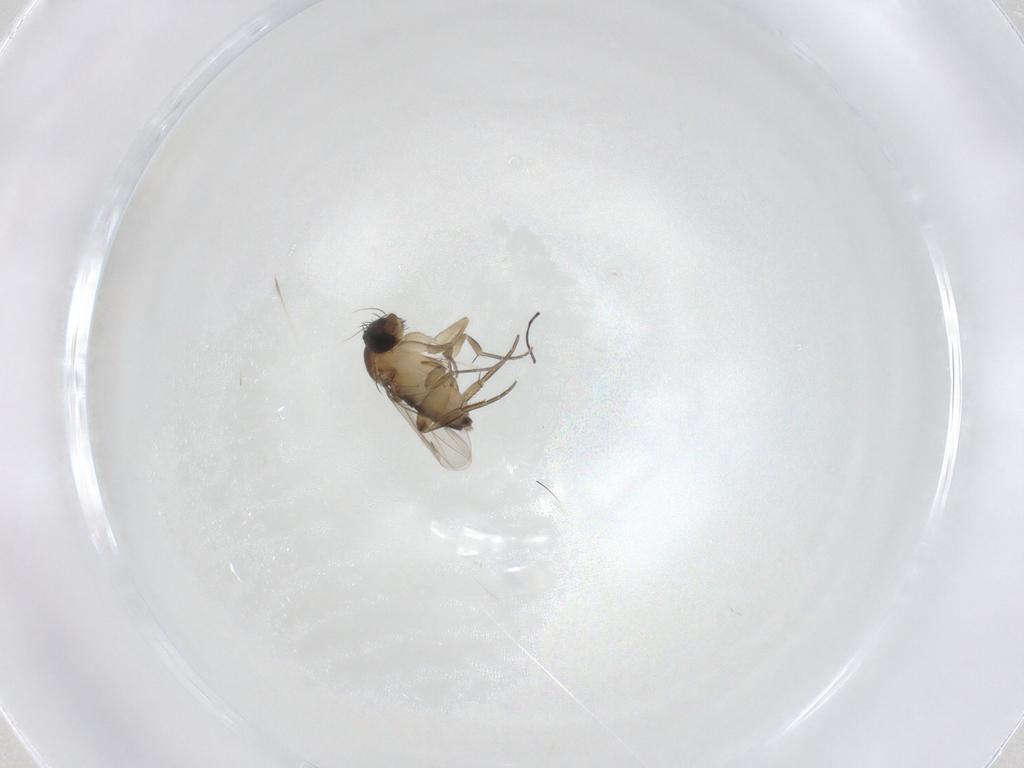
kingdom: Animalia
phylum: Arthropoda
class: Insecta
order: Diptera
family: Phoridae
